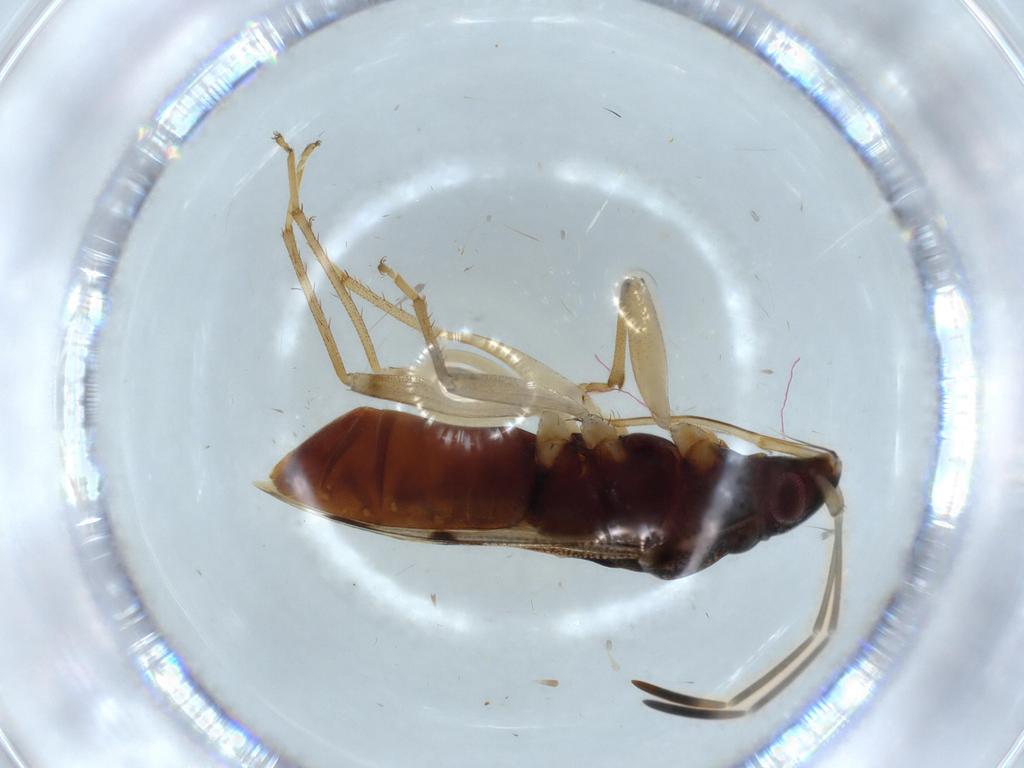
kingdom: Animalia
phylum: Arthropoda
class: Insecta
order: Hemiptera
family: Rhyparochromidae
